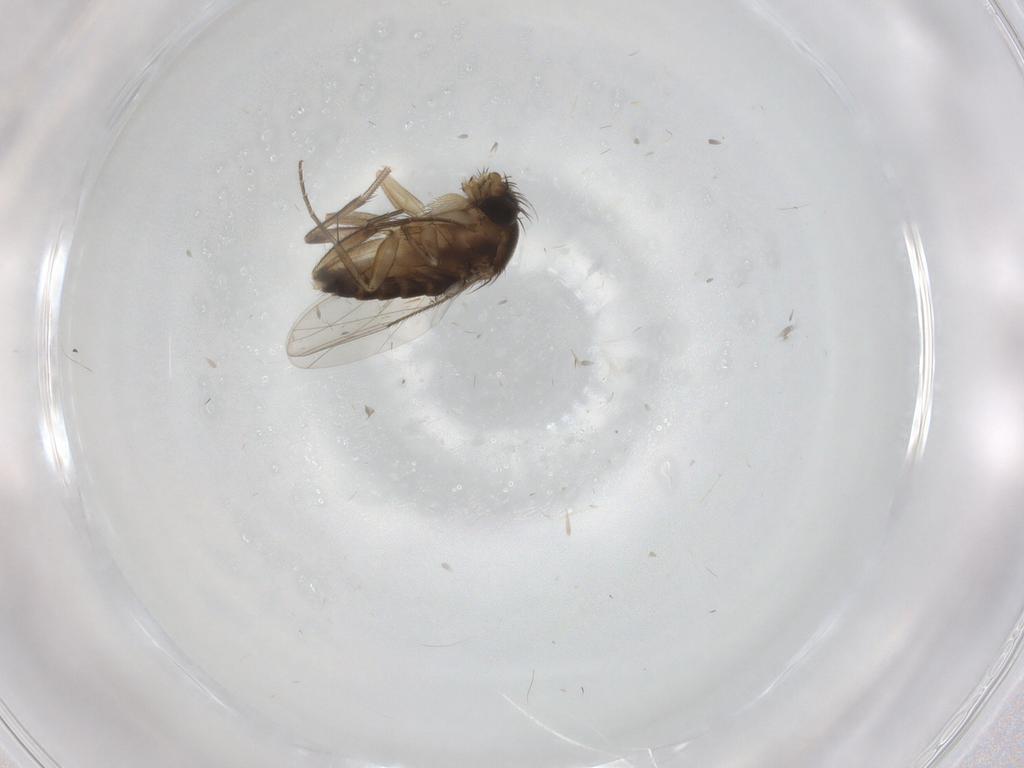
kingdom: Animalia
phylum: Arthropoda
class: Insecta
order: Diptera
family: Phoridae
